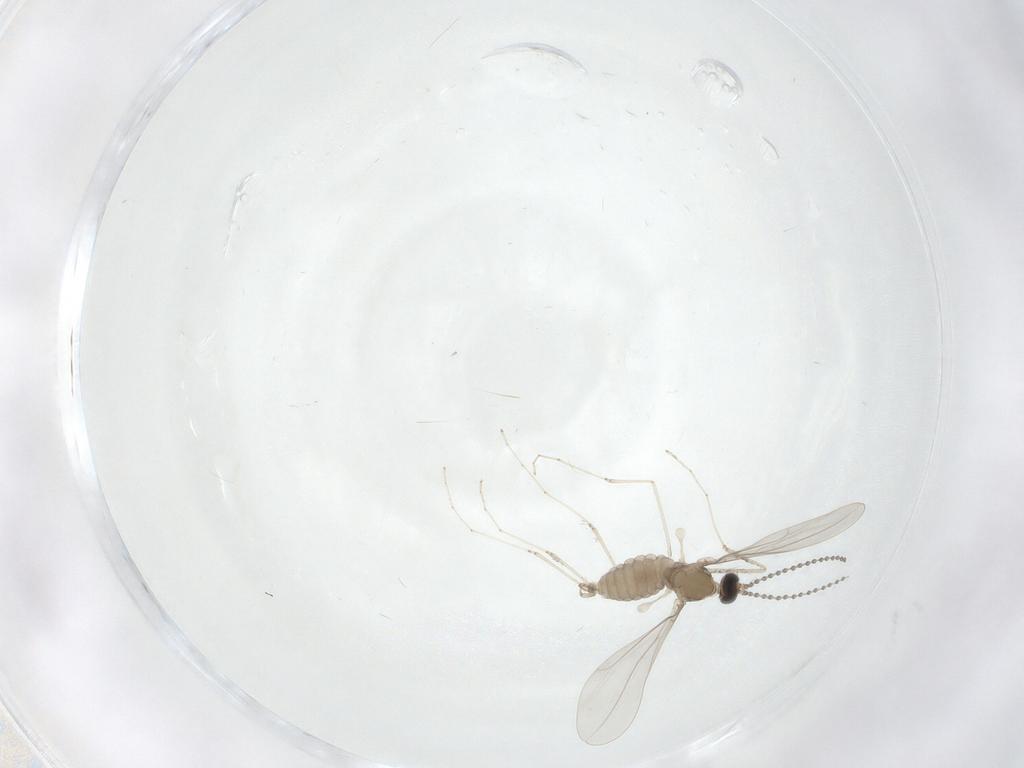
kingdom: Animalia
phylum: Arthropoda
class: Insecta
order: Diptera
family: Cecidomyiidae
